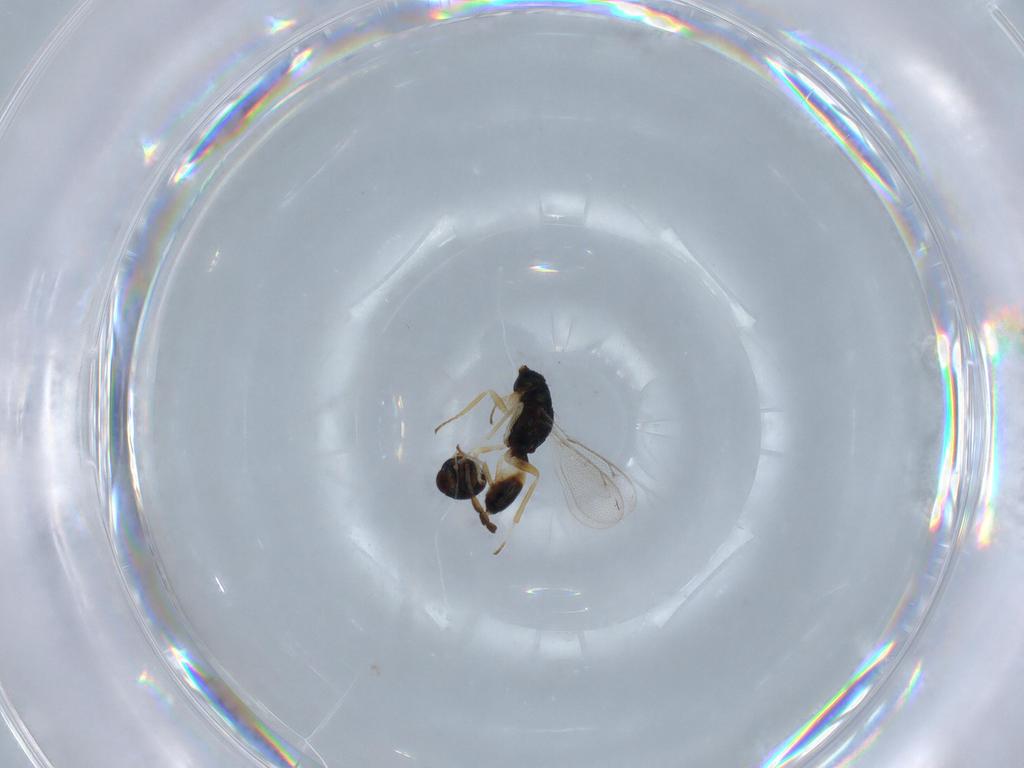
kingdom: Animalia
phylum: Arthropoda
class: Insecta
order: Hymenoptera
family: Eulophidae
